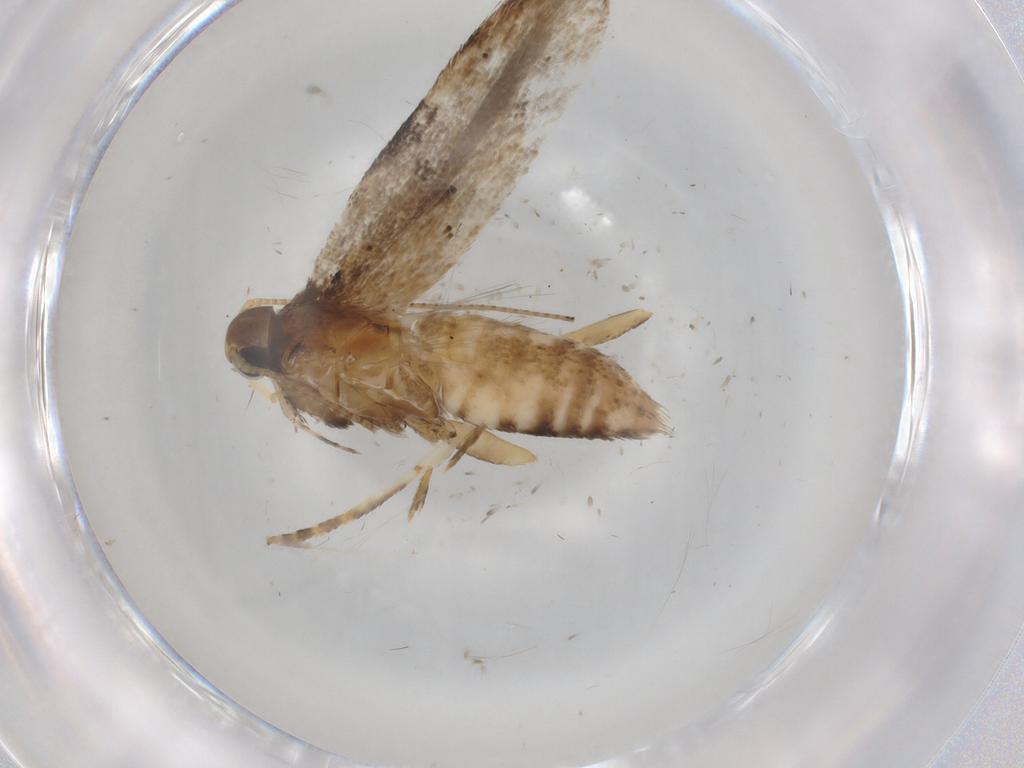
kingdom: Animalia
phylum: Arthropoda
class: Insecta
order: Lepidoptera
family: Gelechiidae
